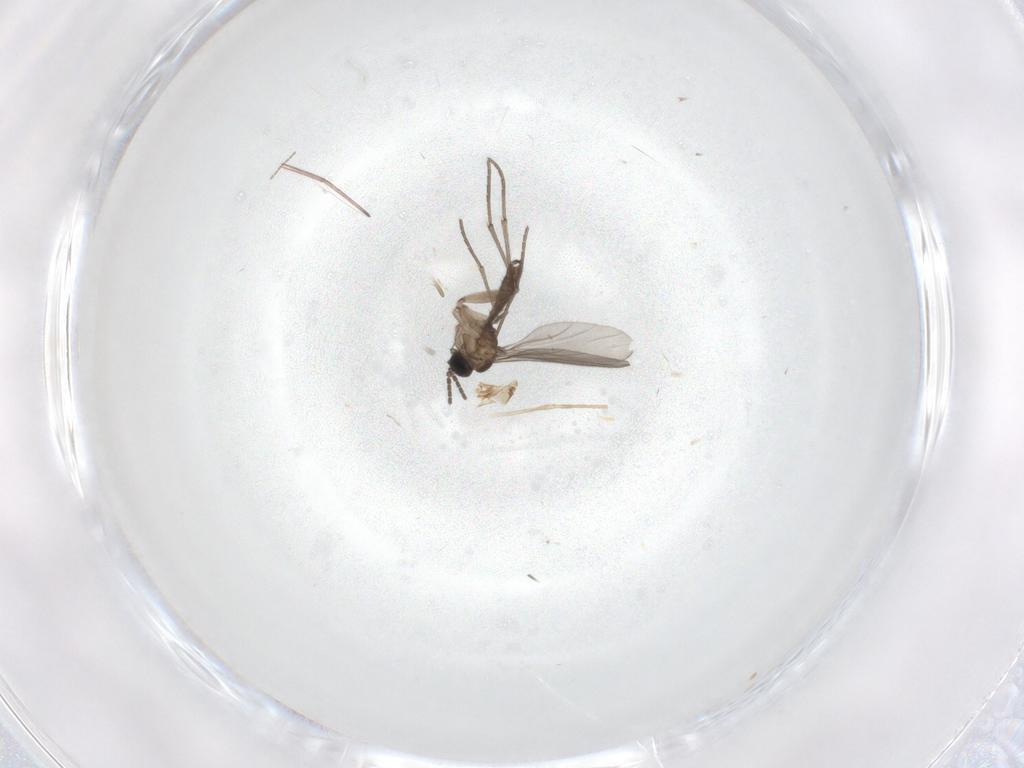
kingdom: Animalia
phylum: Arthropoda
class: Insecta
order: Diptera
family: Sciaridae
